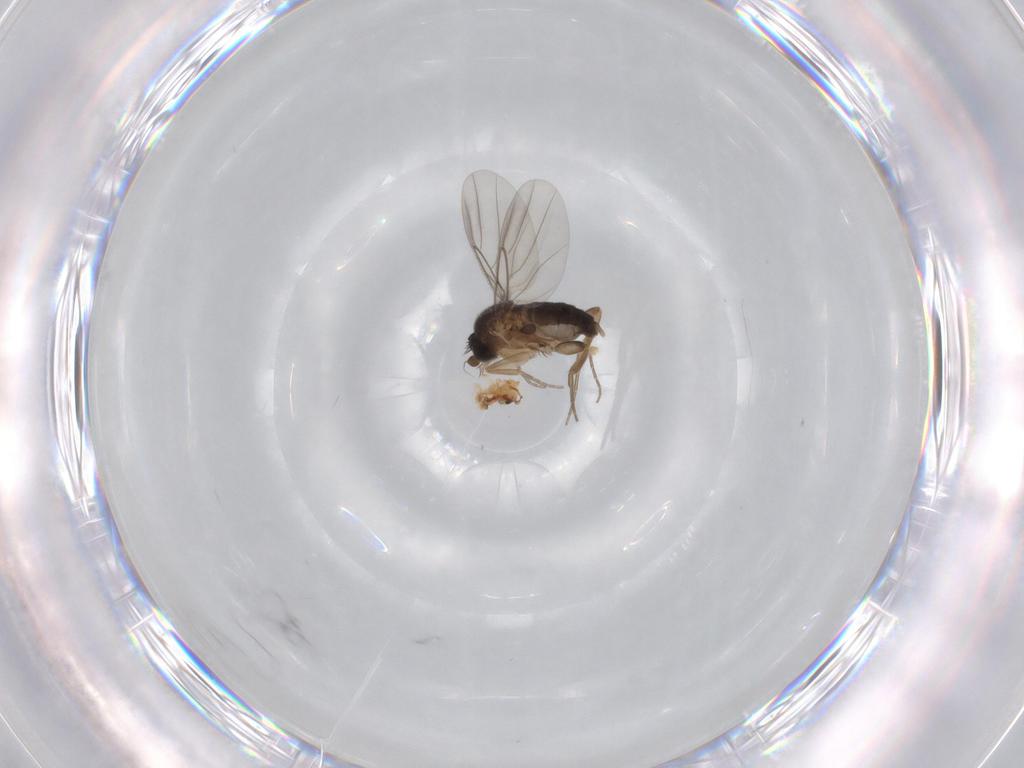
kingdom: Animalia
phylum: Arthropoda
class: Insecta
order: Diptera
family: Phoridae
